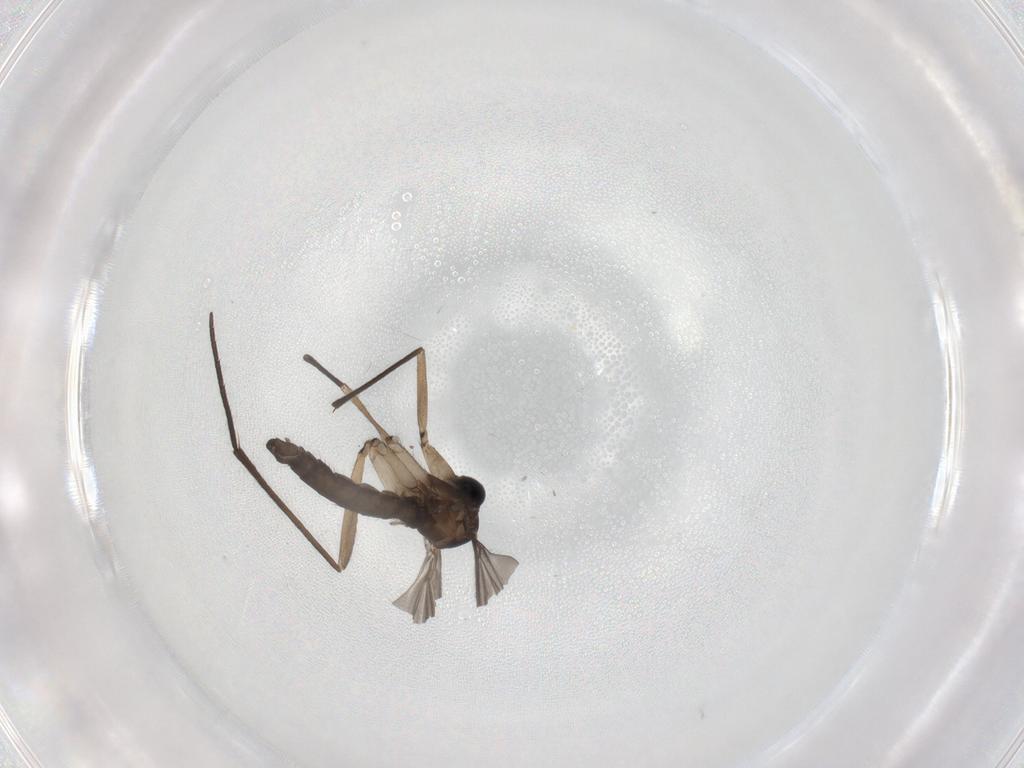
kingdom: Animalia
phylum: Arthropoda
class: Insecta
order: Diptera
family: Sciaridae
